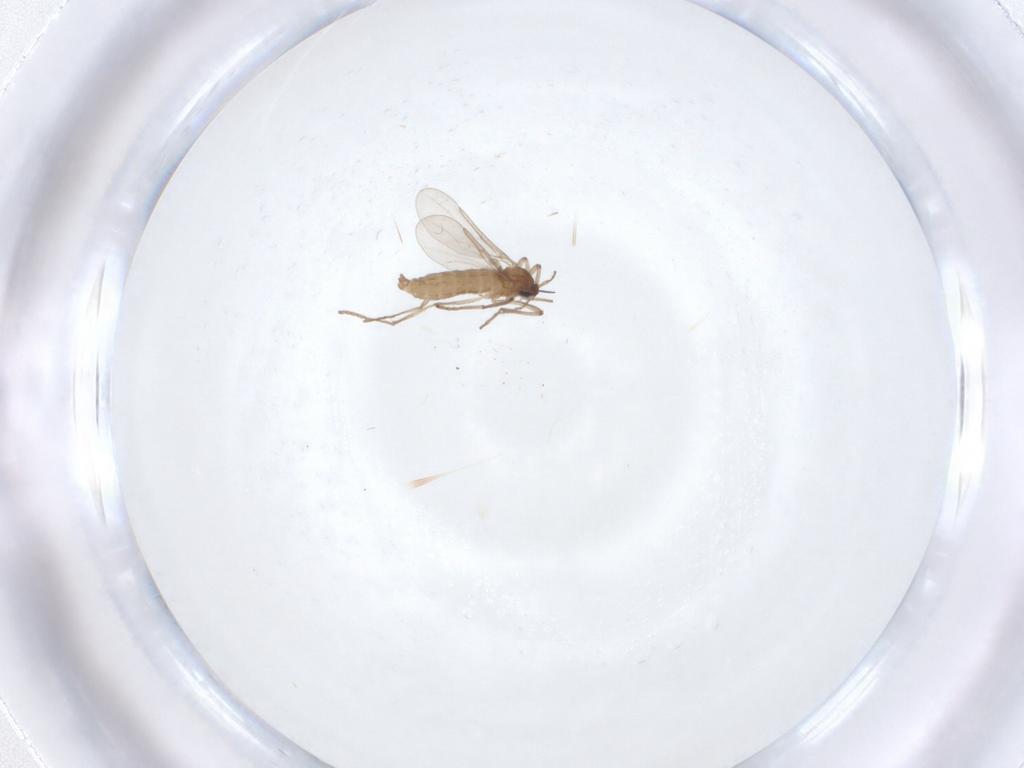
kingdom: Animalia
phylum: Arthropoda
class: Insecta
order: Diptera
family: Cecidomyiidae
